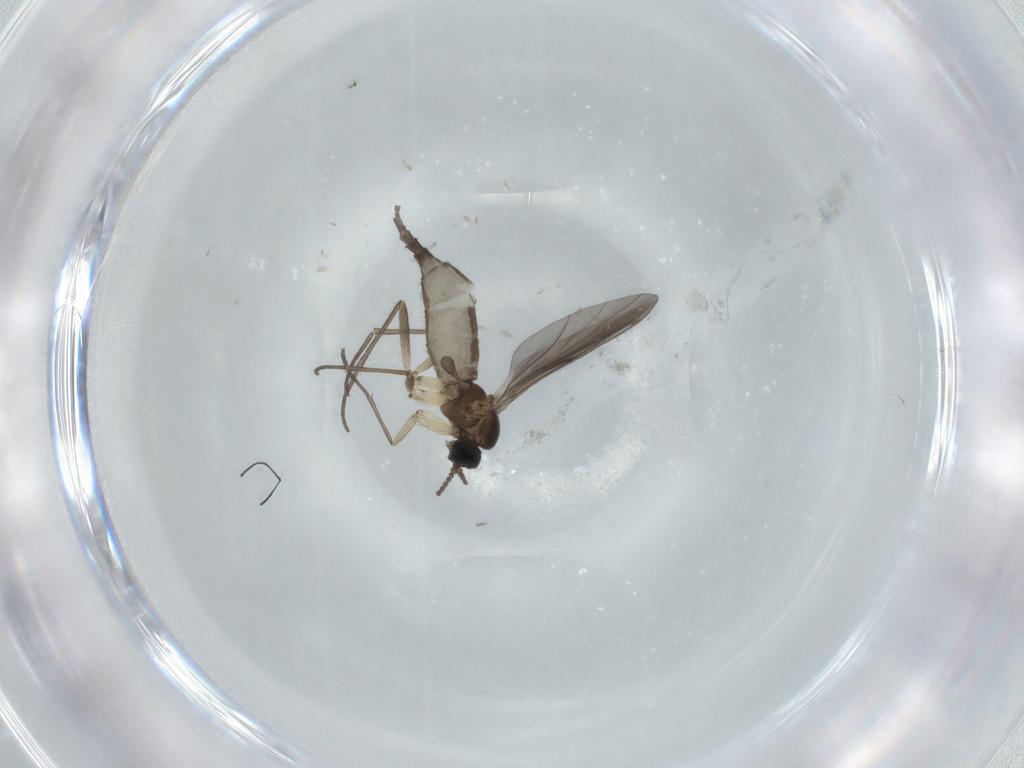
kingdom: Animalia
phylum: Arthropoda
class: Insecta
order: Diptera
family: Sciaridae
